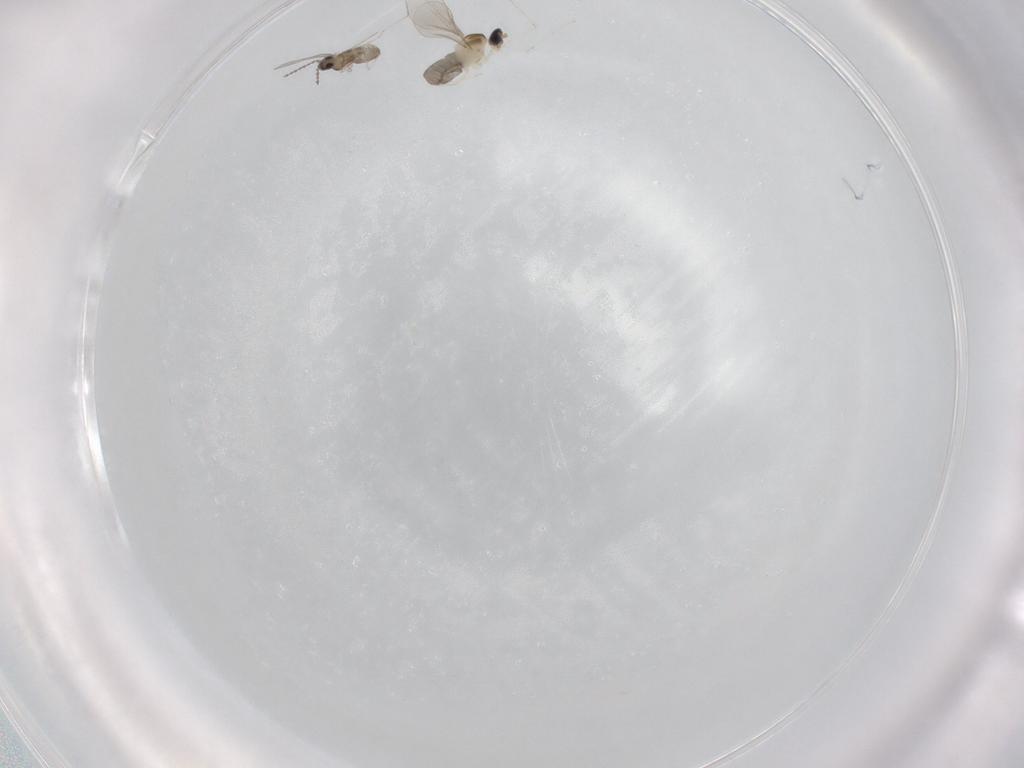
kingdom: Animalia
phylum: Arthropoda
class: Insecta
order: Diptera
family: Cecidomyiidae
